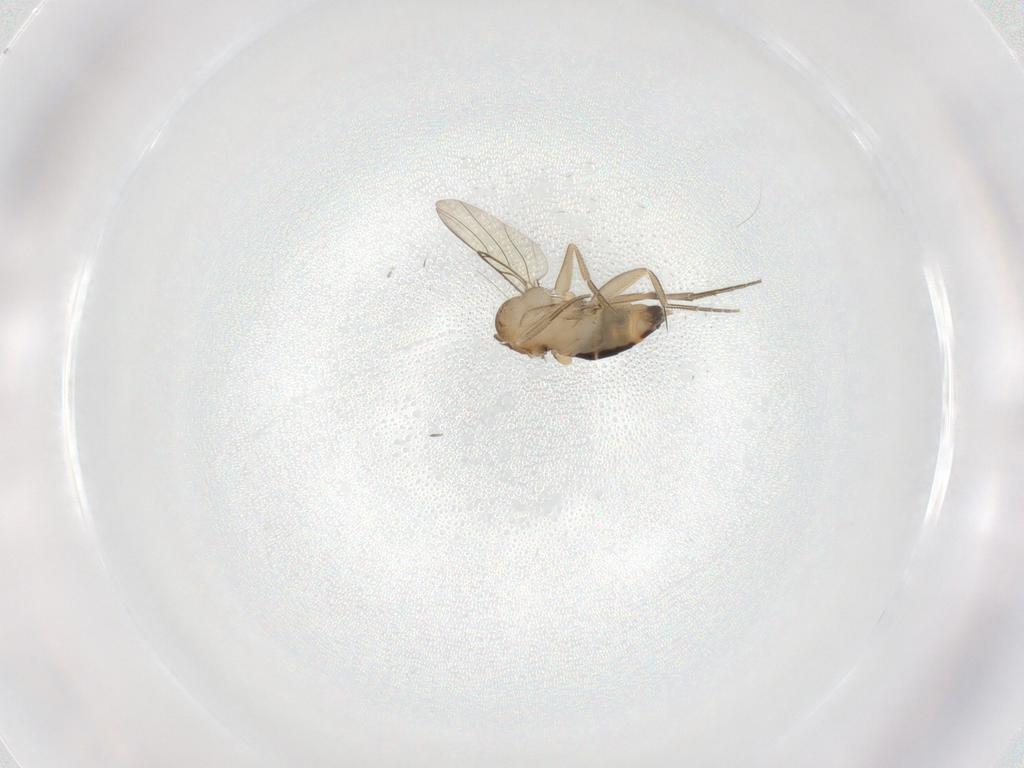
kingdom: Animalia
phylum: Arthropoda
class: Insecta
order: Diptera
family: Phoridae
